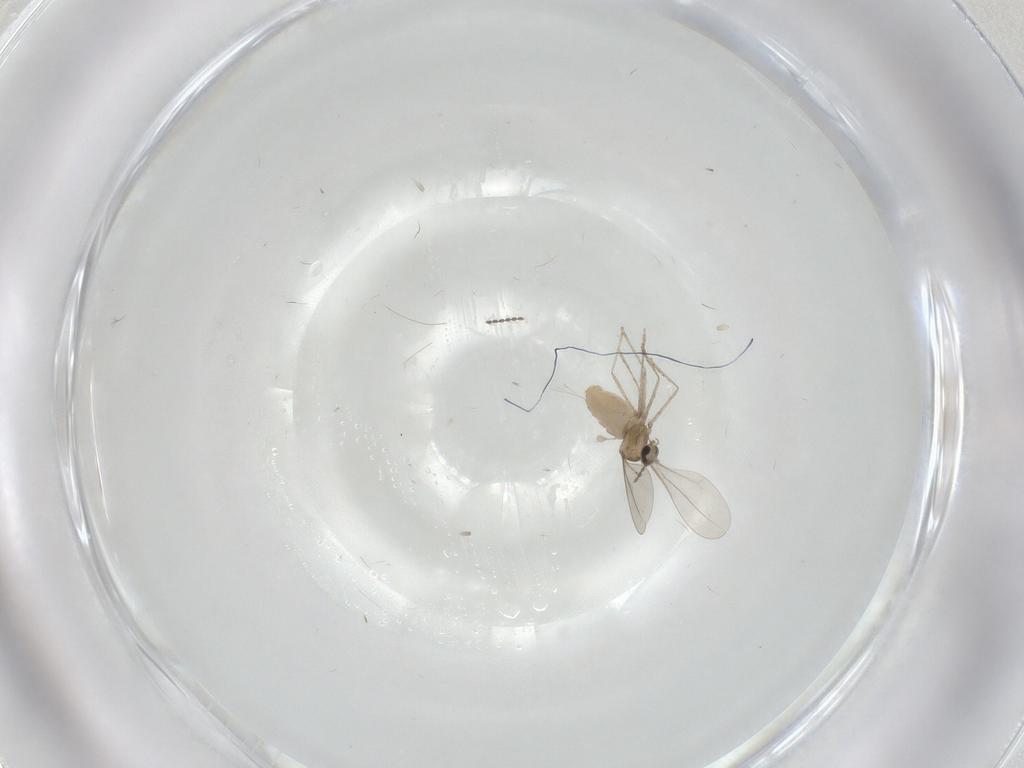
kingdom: Animalia
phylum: Arthropoda
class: Insecta
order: Diptera
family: Cecidomyiidae
